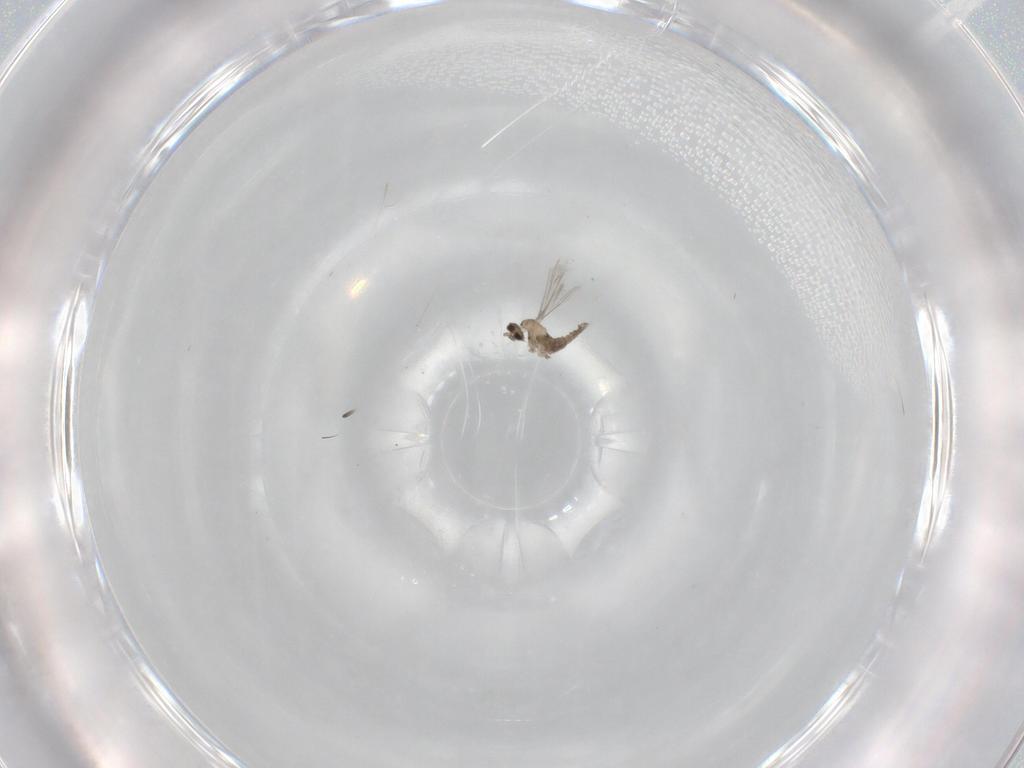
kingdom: Animalia
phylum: Arthropoda
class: Insecta
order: Diptera
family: Cecidomyiidae
